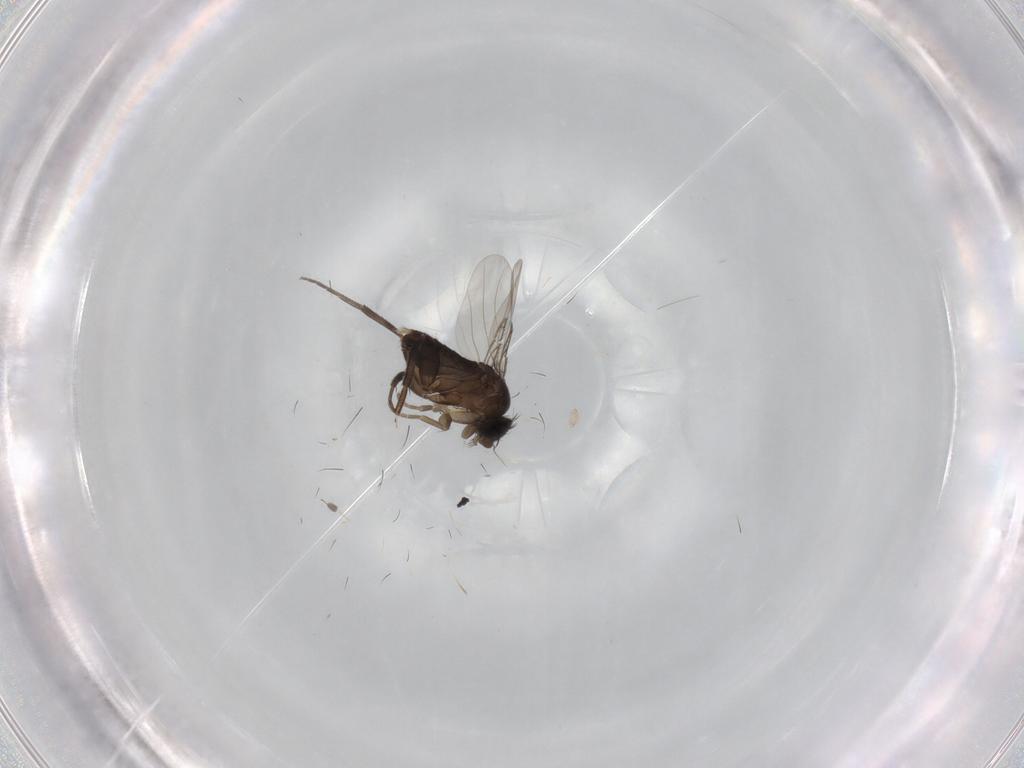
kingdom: Animalia
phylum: Arthropoda
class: Insecta
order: Diptera
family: Phoridae
